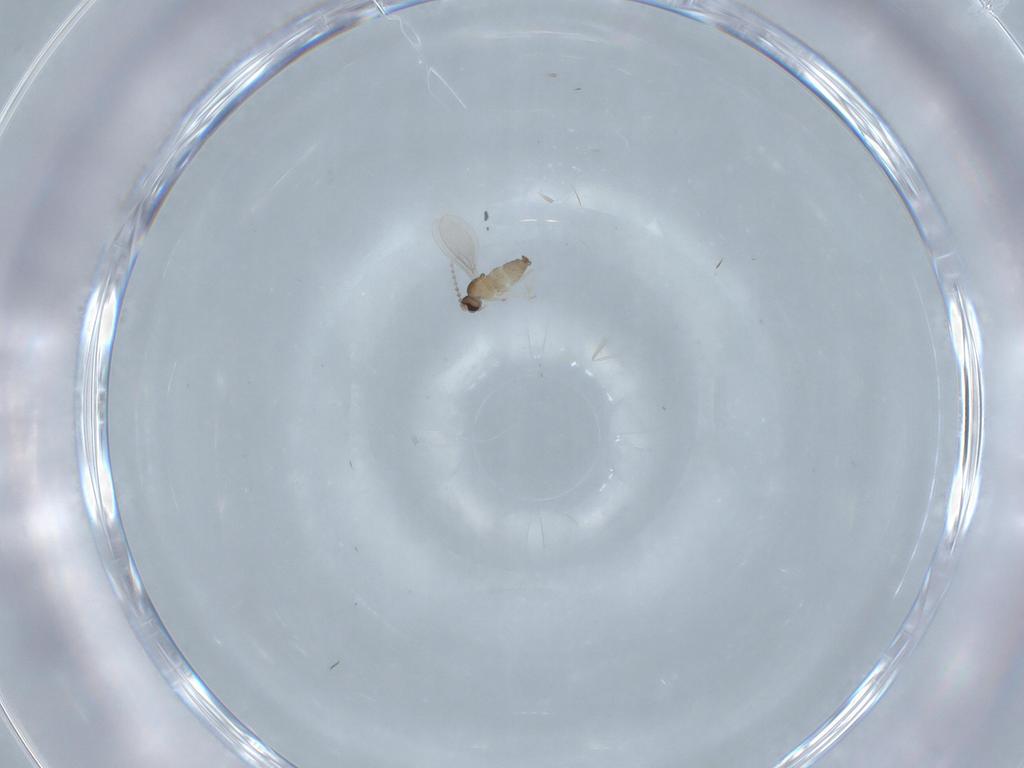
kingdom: Animalia
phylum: Arthropoda
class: Insecta
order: Diptera
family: Cecidomyiidae
